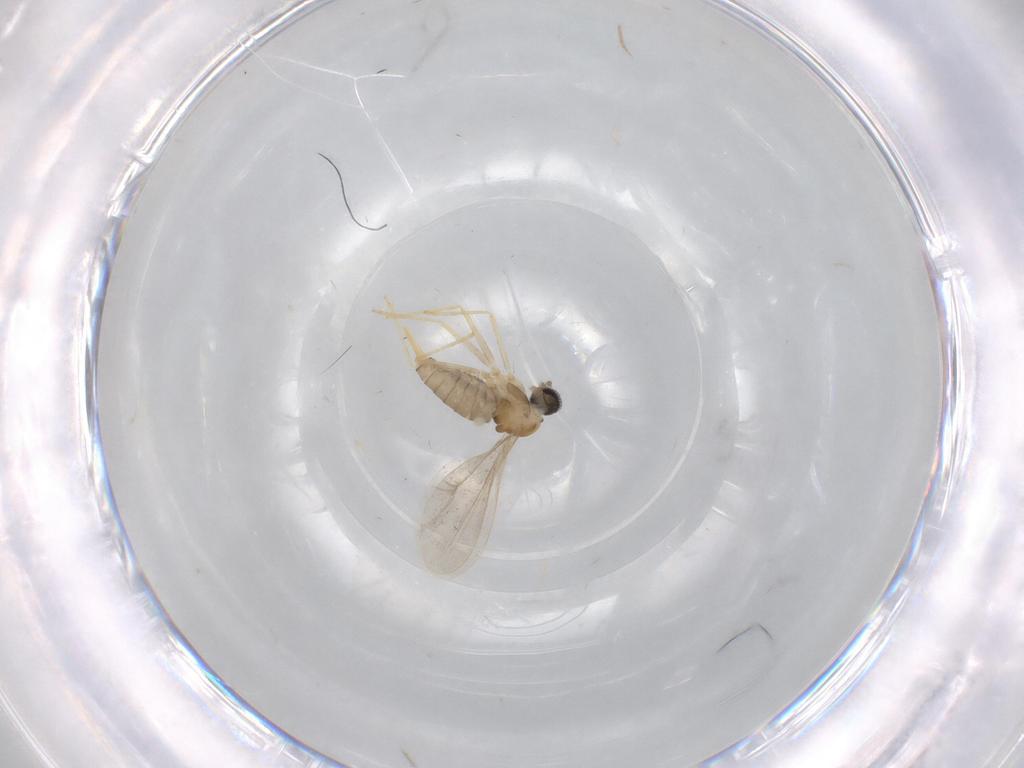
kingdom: Animalia
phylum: Arthropoda
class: Insecta
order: Diptera
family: Cecidomyiidae
